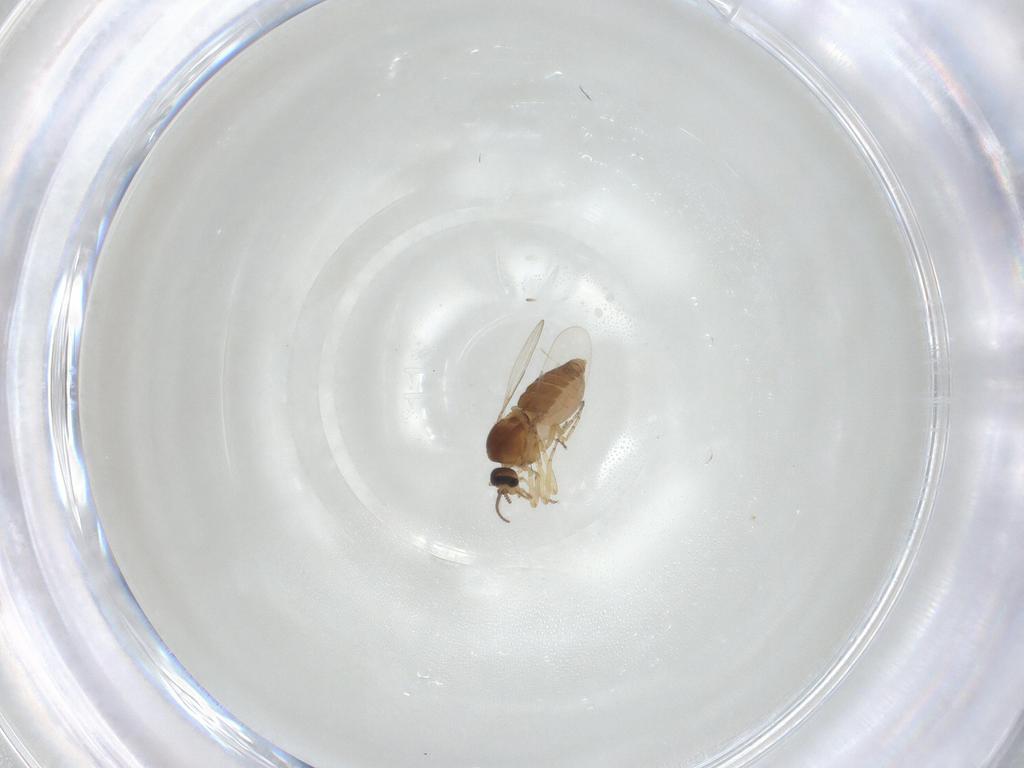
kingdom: Animalia
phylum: Arthropoda
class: Insecta
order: Diptera
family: Ceratopogonidae
